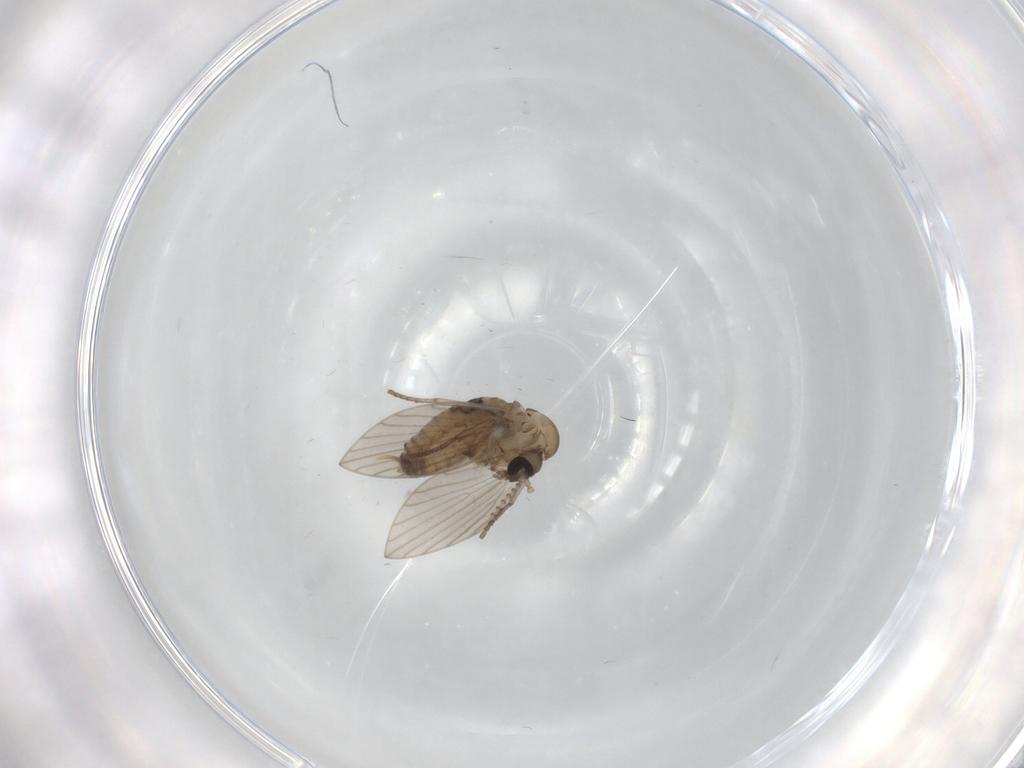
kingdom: Animalia
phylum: Arthropoda
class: Insecta
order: Diptera
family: Psychodidae
